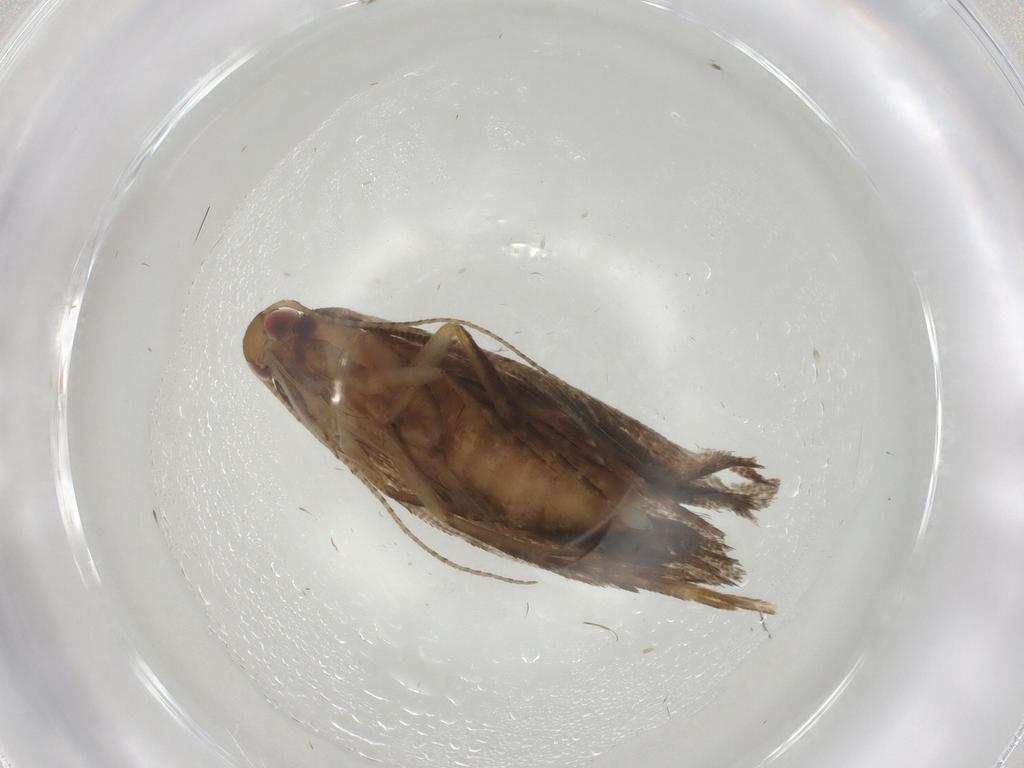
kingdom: Animalia
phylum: Arthropoda
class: Insecta
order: Lepidoptera
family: Gelechiidae
